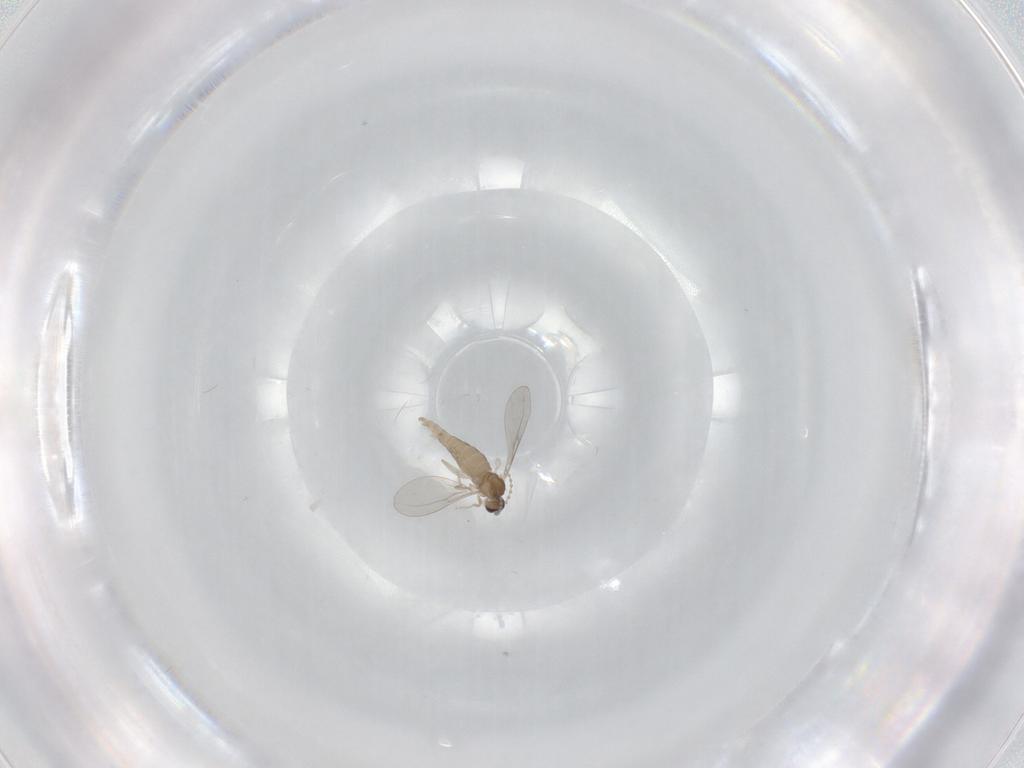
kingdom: Animalia
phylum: Arthropoda
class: Insecta
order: Diptera
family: Cecidomyiidae
